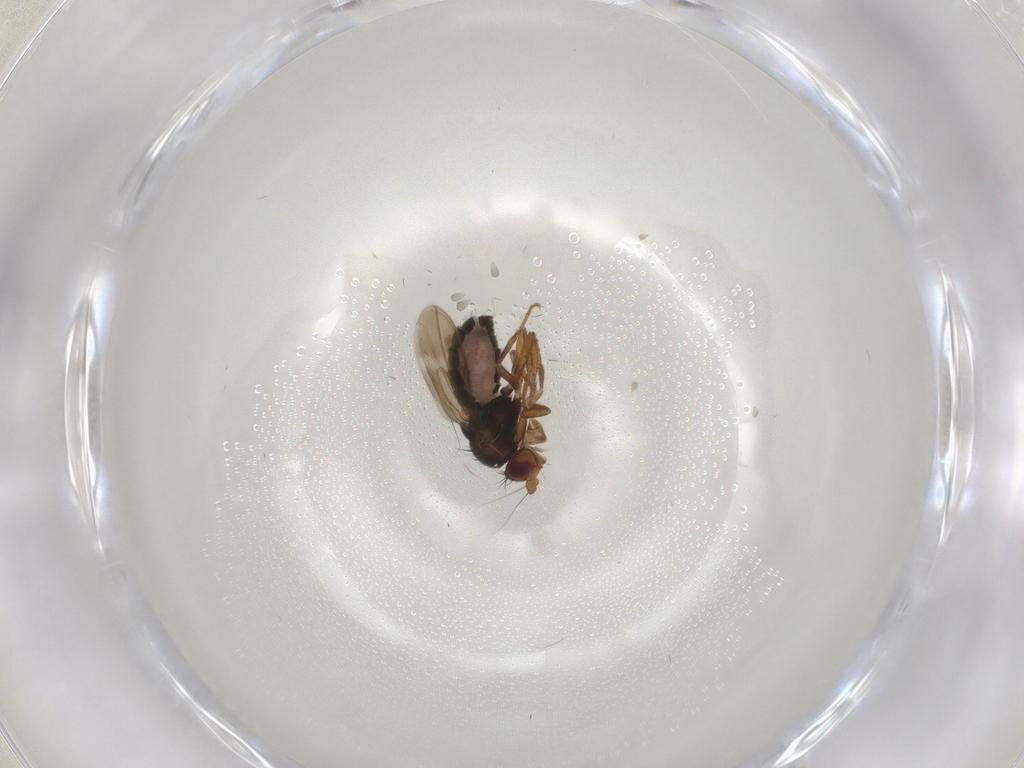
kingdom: Animalia
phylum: Arthropoda
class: Insecta
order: Diptera
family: Sphaeroceridae
